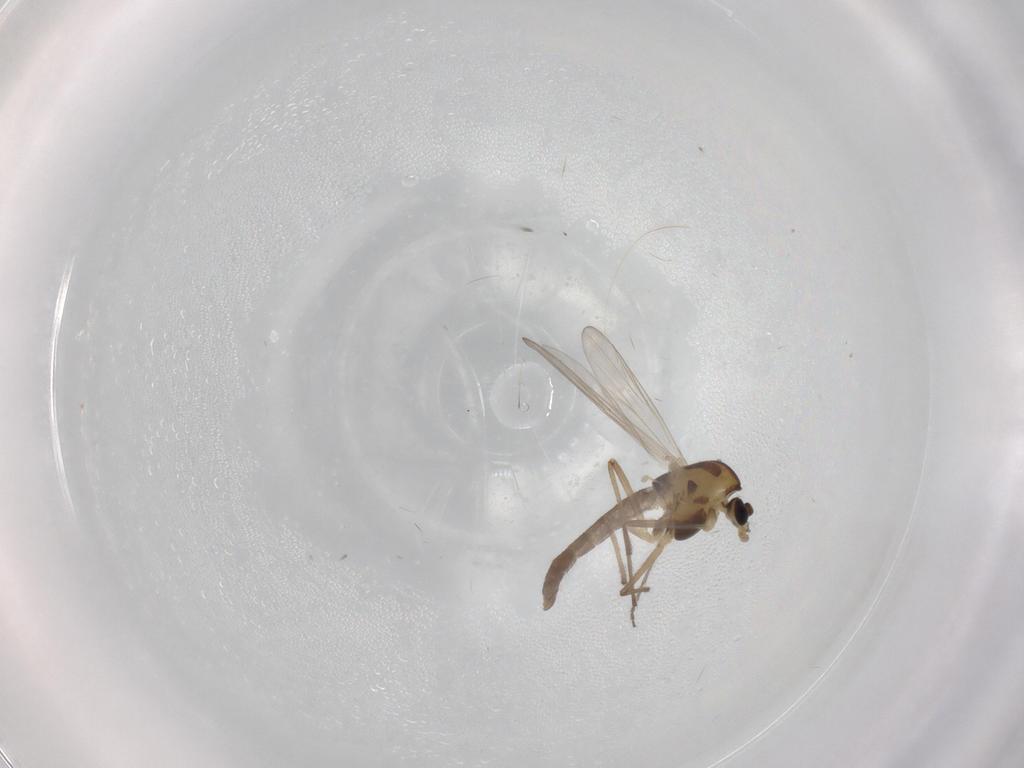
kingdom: Animalia
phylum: Arthropoda
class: Insecta
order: Diptera
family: Chironomidae
